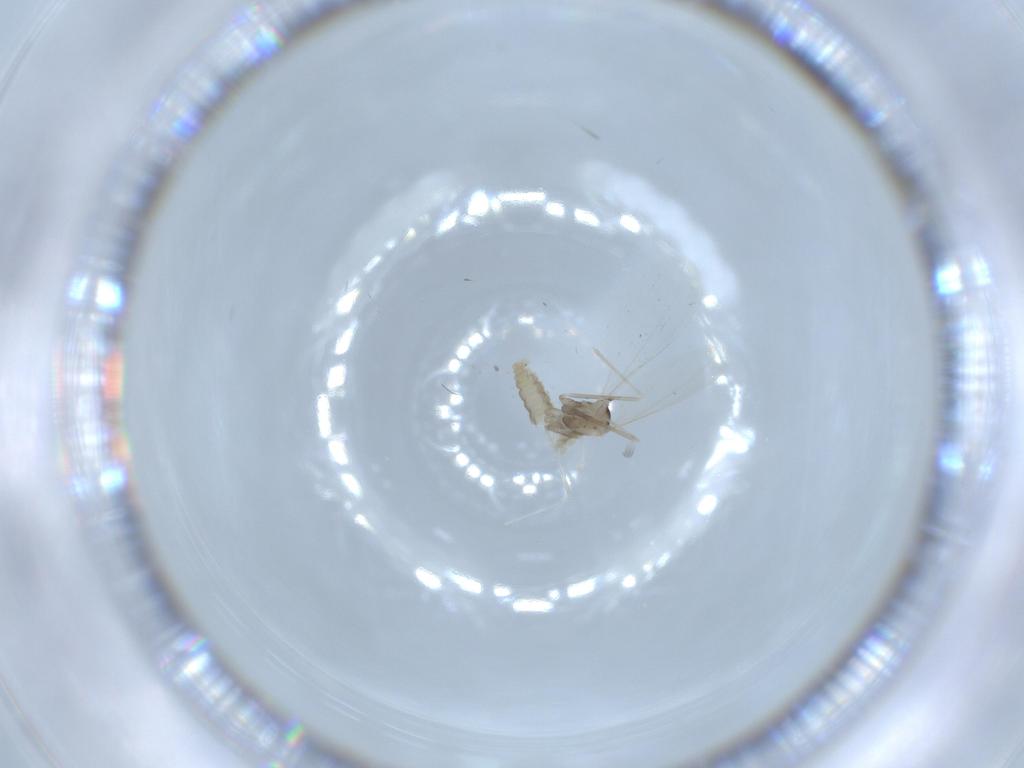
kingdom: Animalia
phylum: Arthropoda
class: Insecta
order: Diptera
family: Cecidomyiidae
